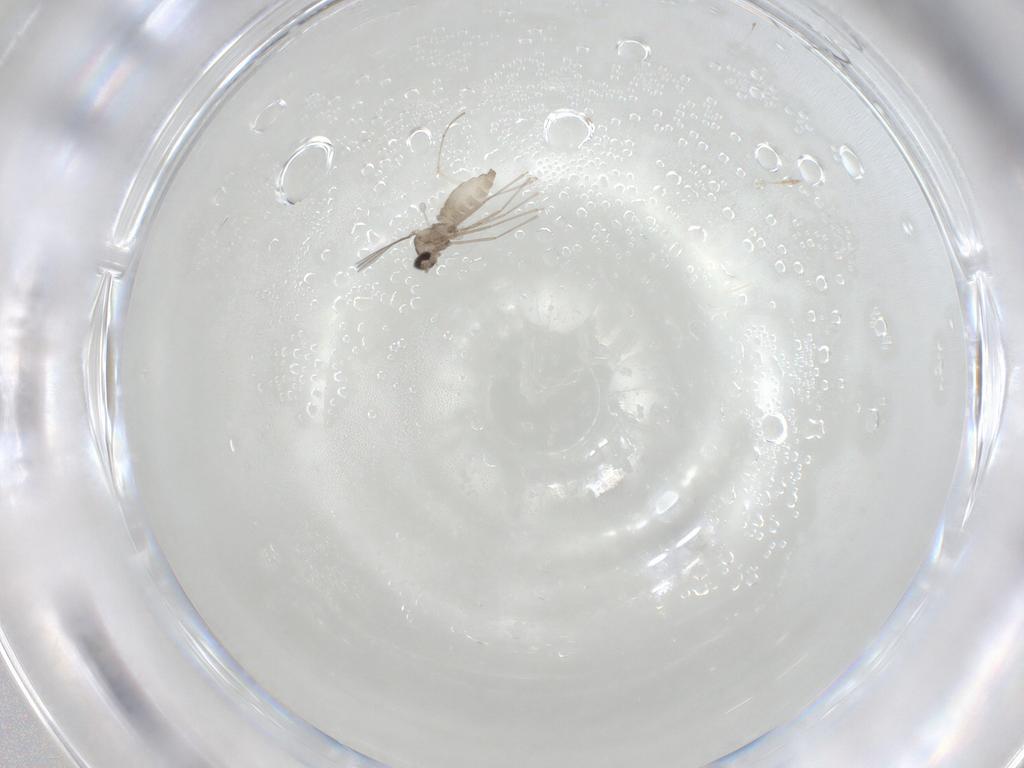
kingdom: Animalia
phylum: Arthropoda
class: Insecta
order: Diptera
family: Cecidomyiidae
